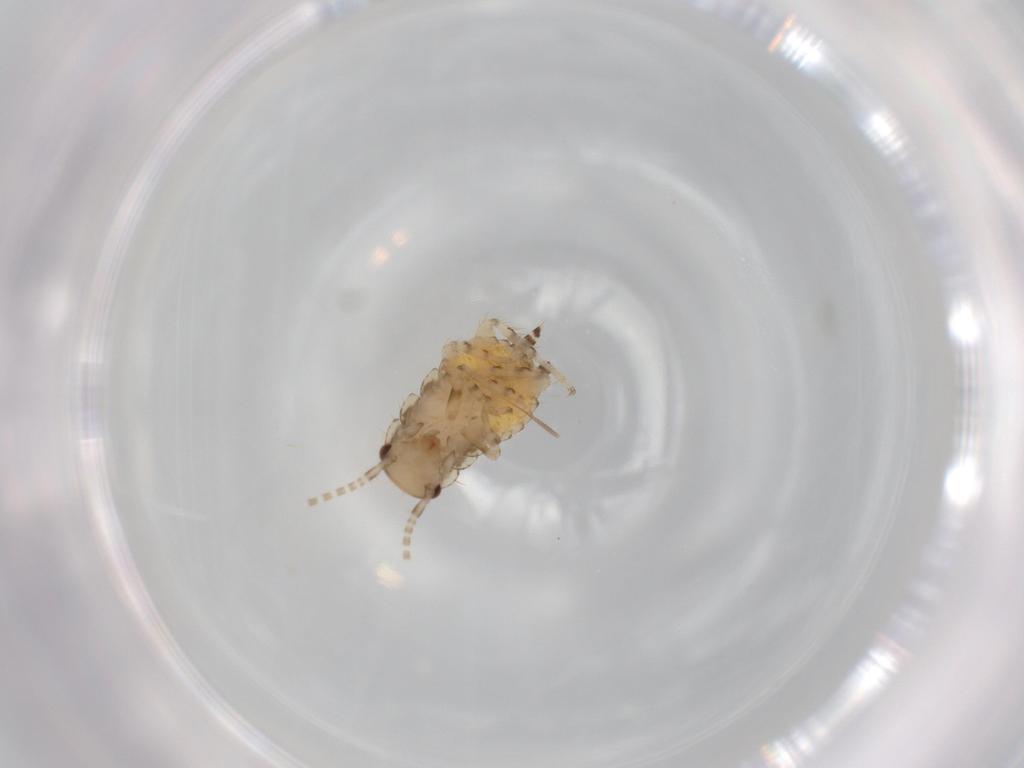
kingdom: Animalia
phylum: Arthropoda
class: Insecta
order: Blattodea
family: Ectobiidae
